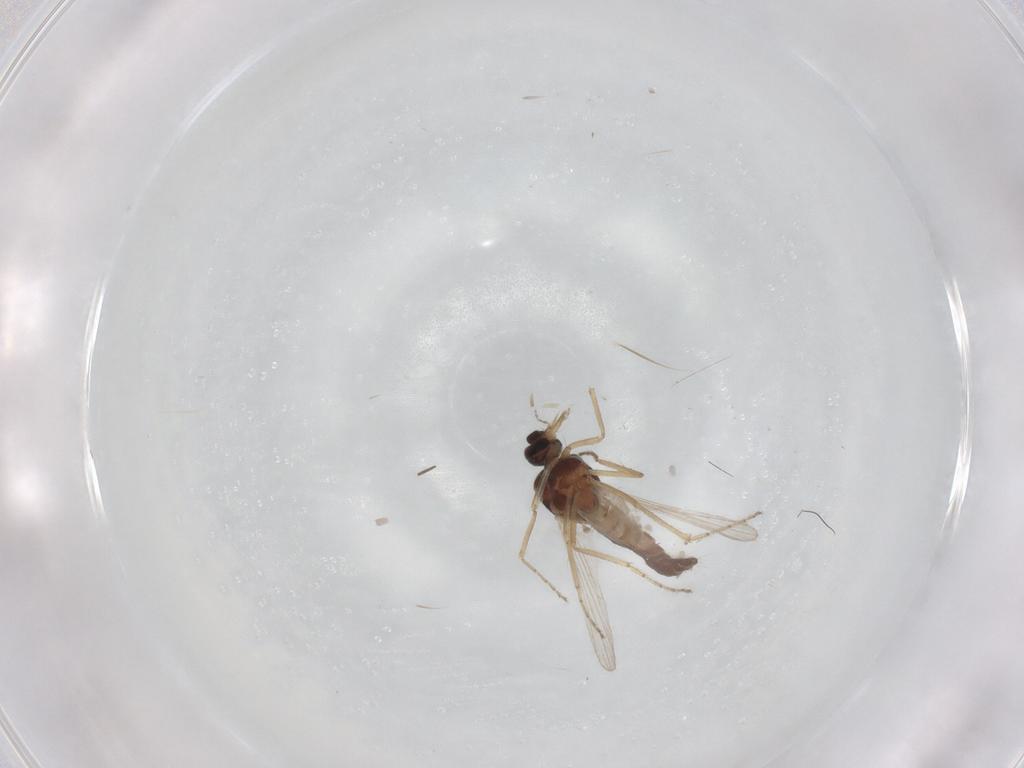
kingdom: Animalia
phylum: Arthropoda
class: Insecta
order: Diptera
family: Ceratopogonidae
